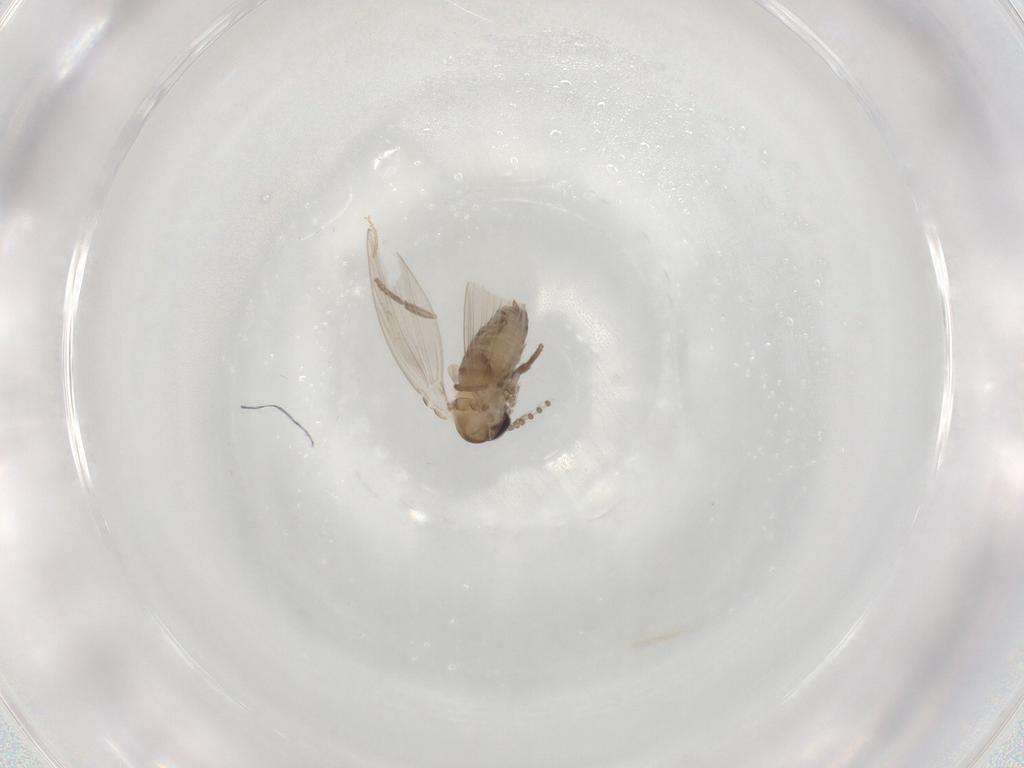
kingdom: Animalia
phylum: Arthropoda
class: Insecta
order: Diptera
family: Psychodidae
